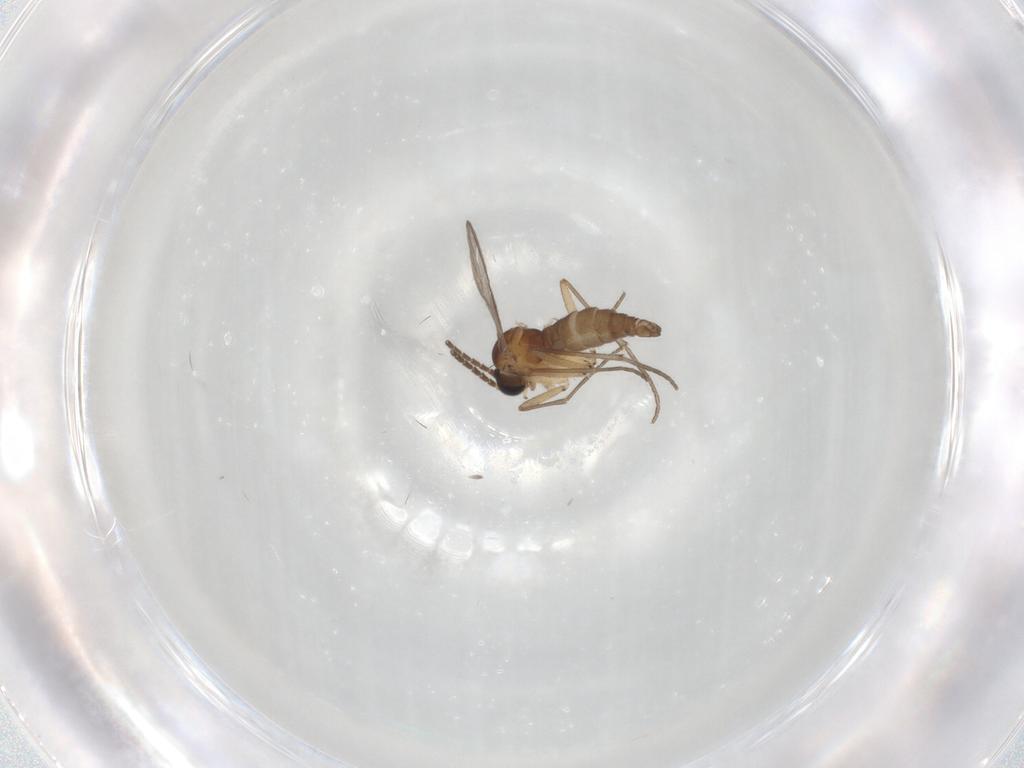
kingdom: Animalia
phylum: Arthropoda
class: Insecta
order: Diptera
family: Sciaridae
